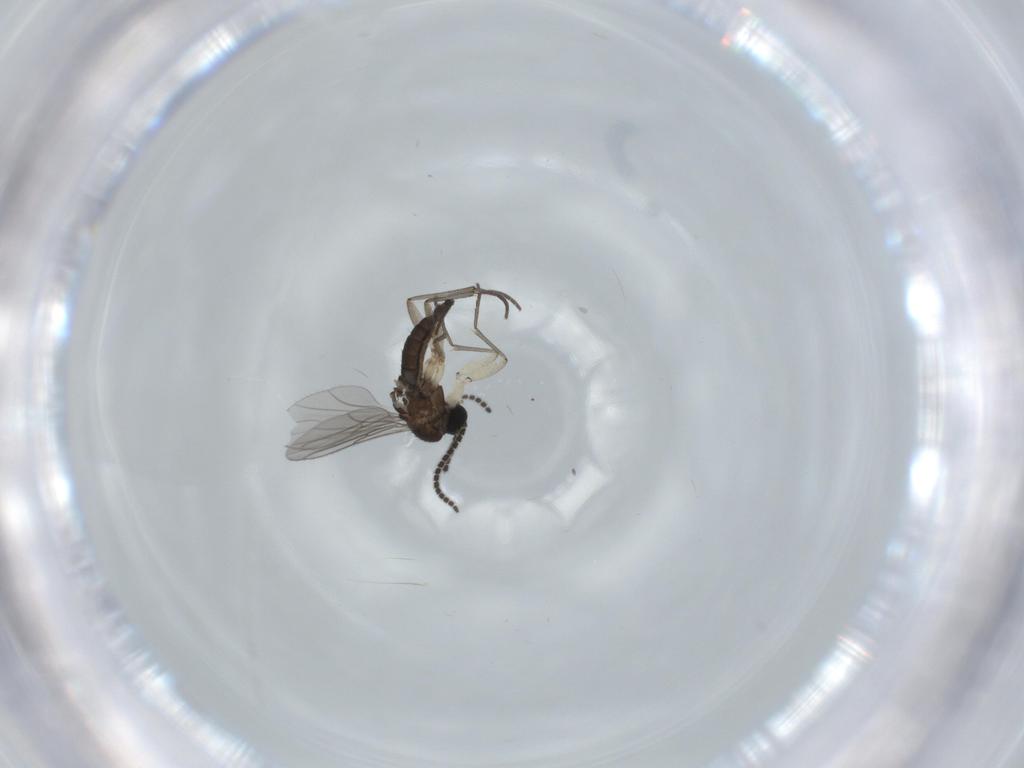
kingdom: Animalia
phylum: Arthropoda
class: Insecta
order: Diptera
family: Sciaridae
